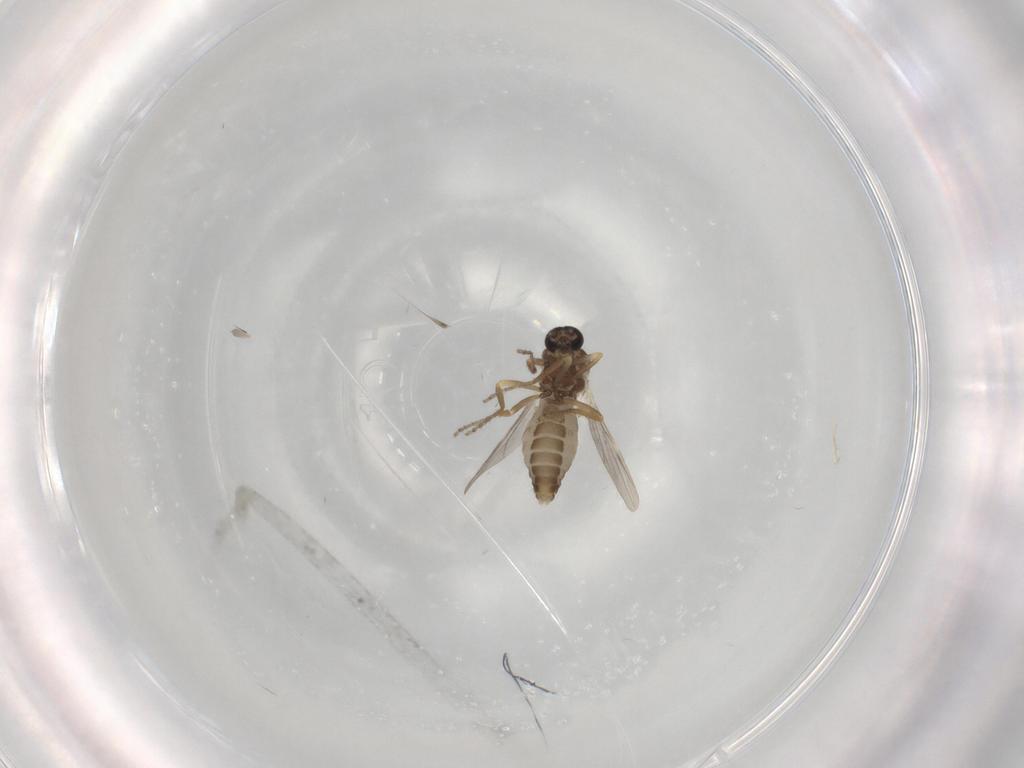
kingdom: Animalia
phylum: Arthropoda
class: Insecta
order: Diptera
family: Ceratopogonidae
